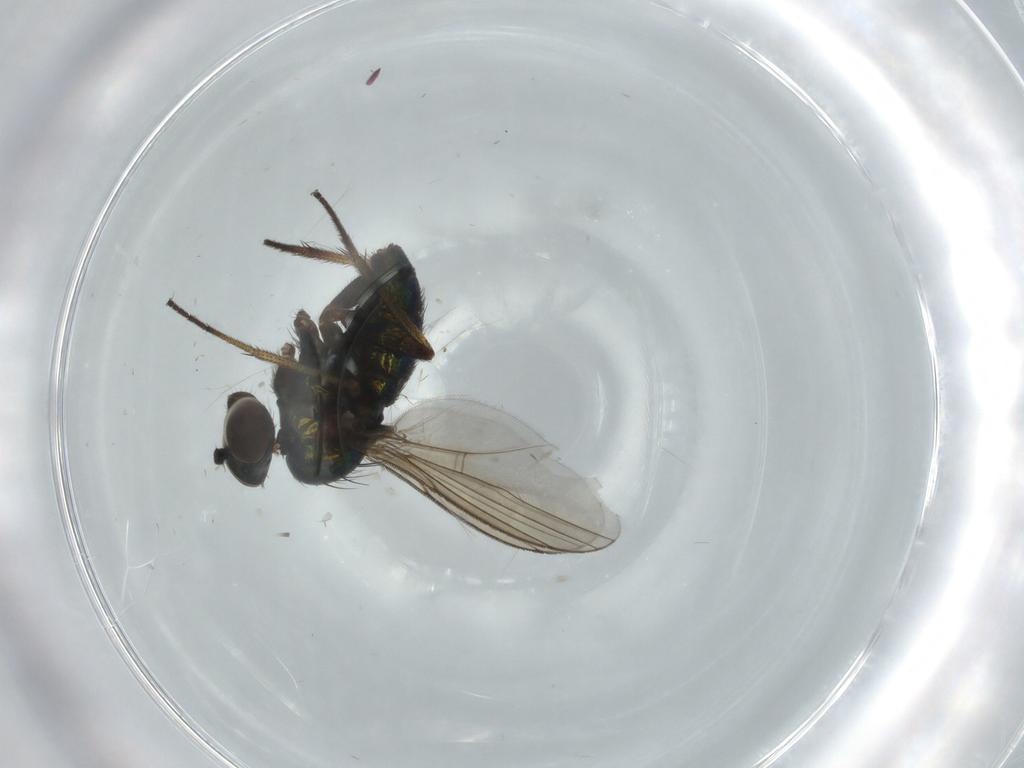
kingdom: Animalia
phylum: Arthropoda
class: Insecta
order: Diptera
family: Dolichopodidae
